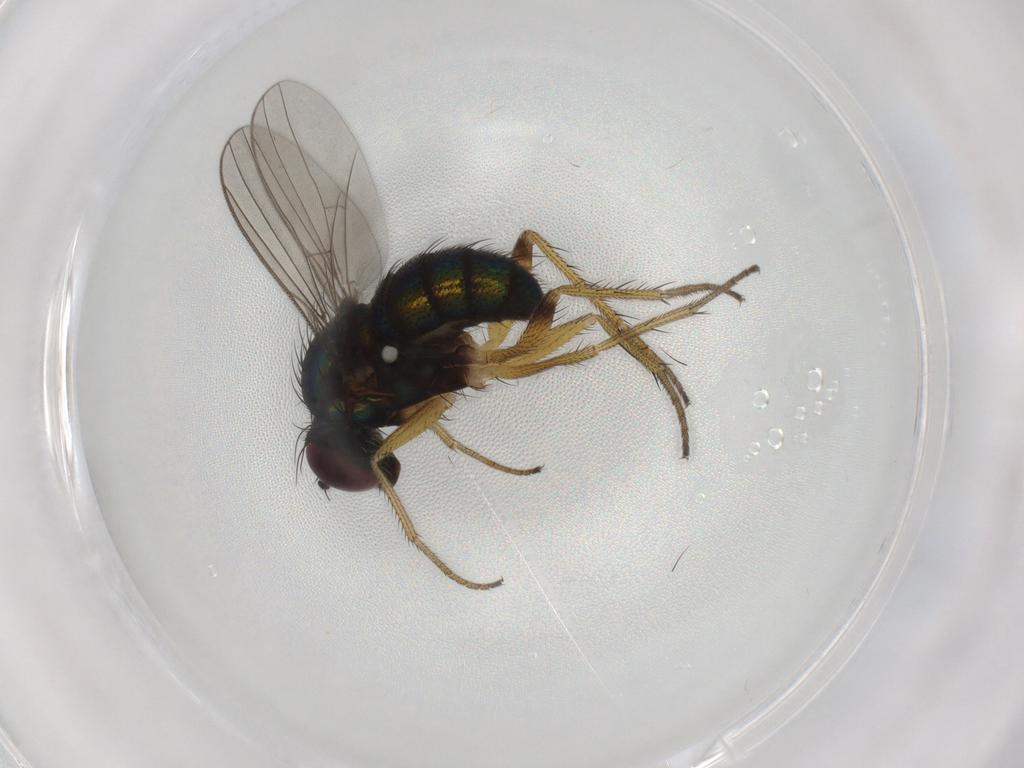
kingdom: Animalia
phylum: Arthropoda
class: Insecta
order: Diptera
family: Dolichopodidae
